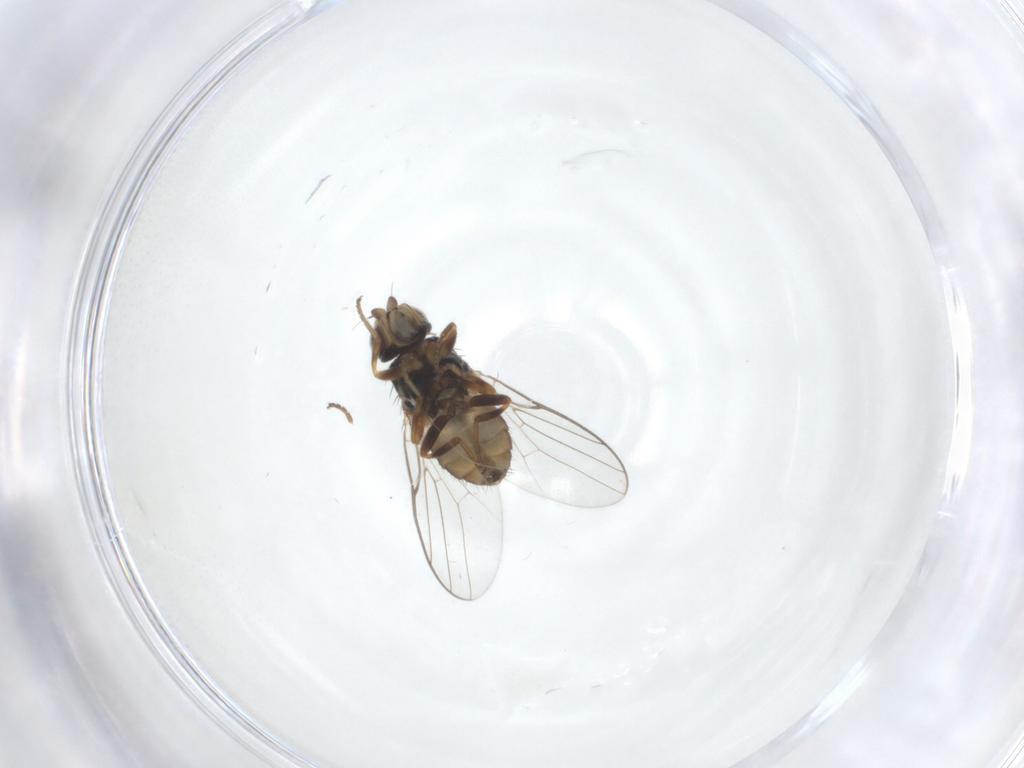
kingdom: Animalia
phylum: Arthropoda
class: Insecta
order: Diptera
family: Chloropidae
